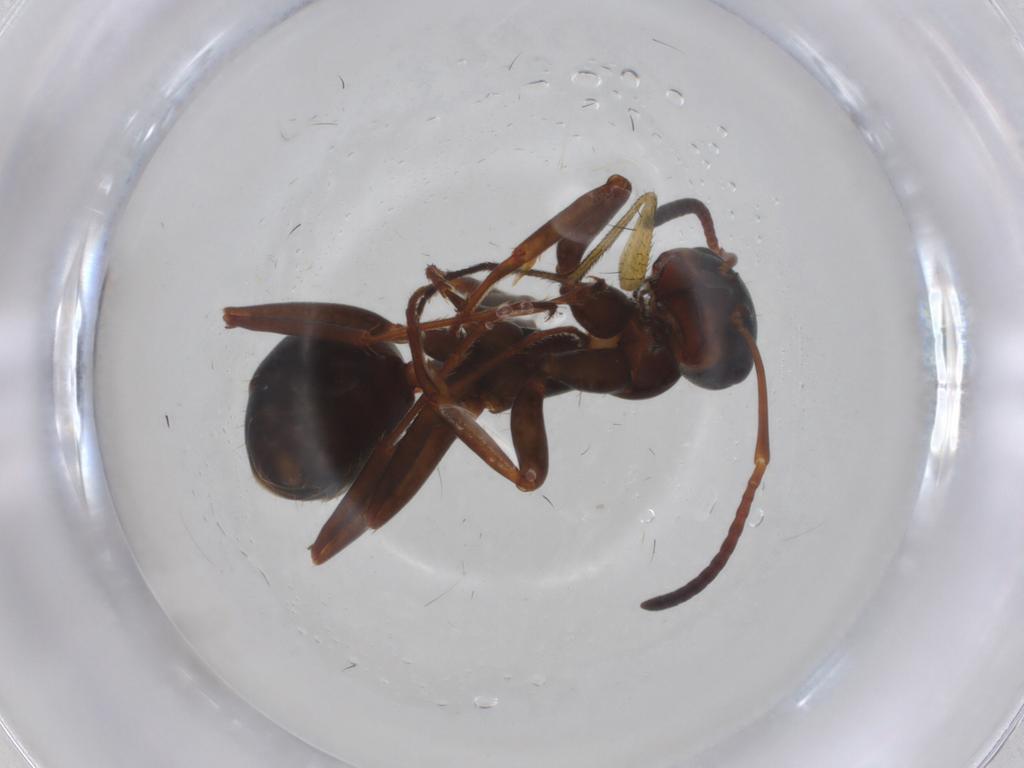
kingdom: Animalia
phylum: Arthropoda
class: Insecta
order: Hymenoptera
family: Formicidae
